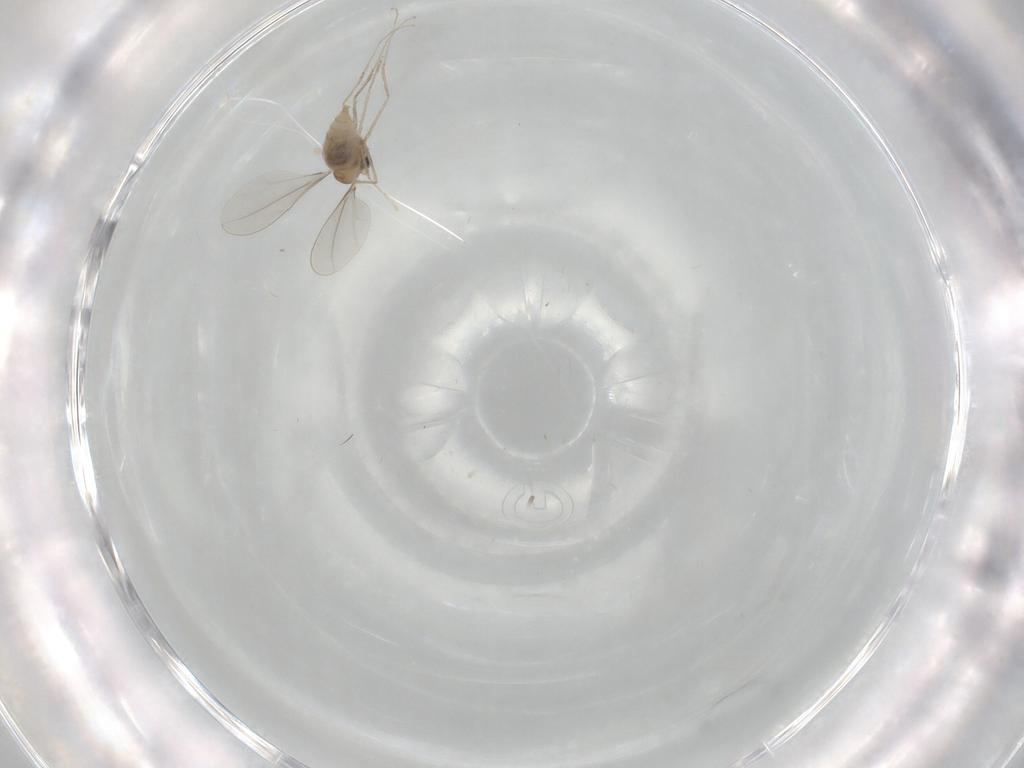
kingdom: Animalia
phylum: Arthropoda
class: Insecta
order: Diptera
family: Cecidomyiidae
